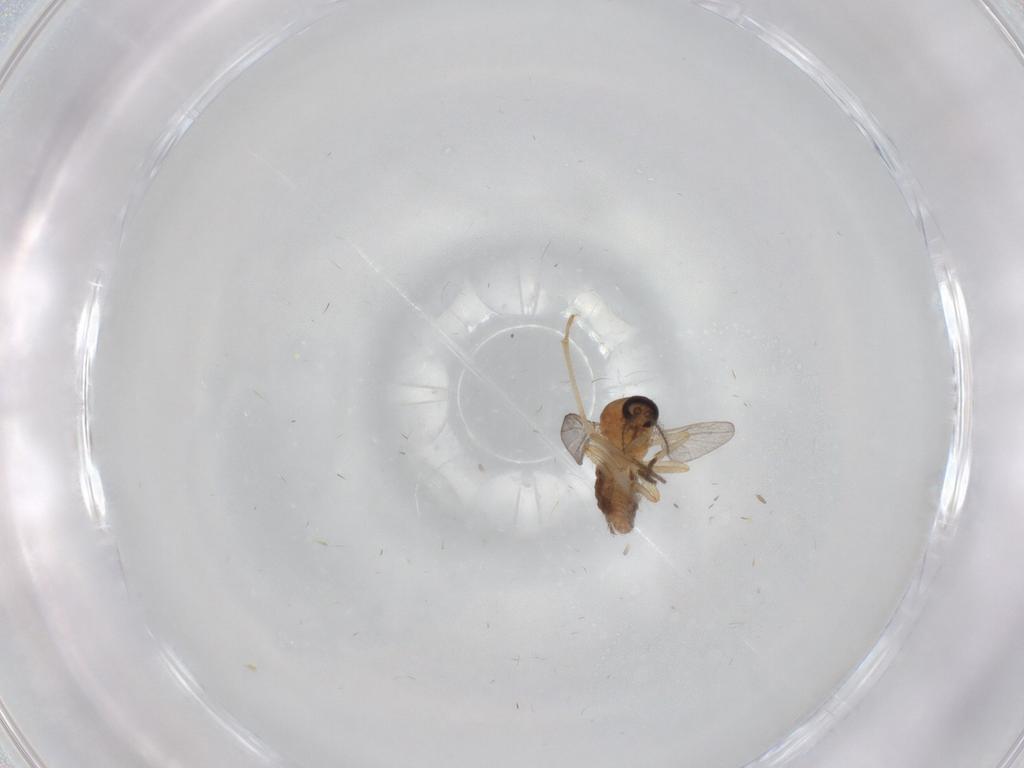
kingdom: Animalia
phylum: Arthropoda
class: Insecta
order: Diptera
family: Ceratopogonidae
